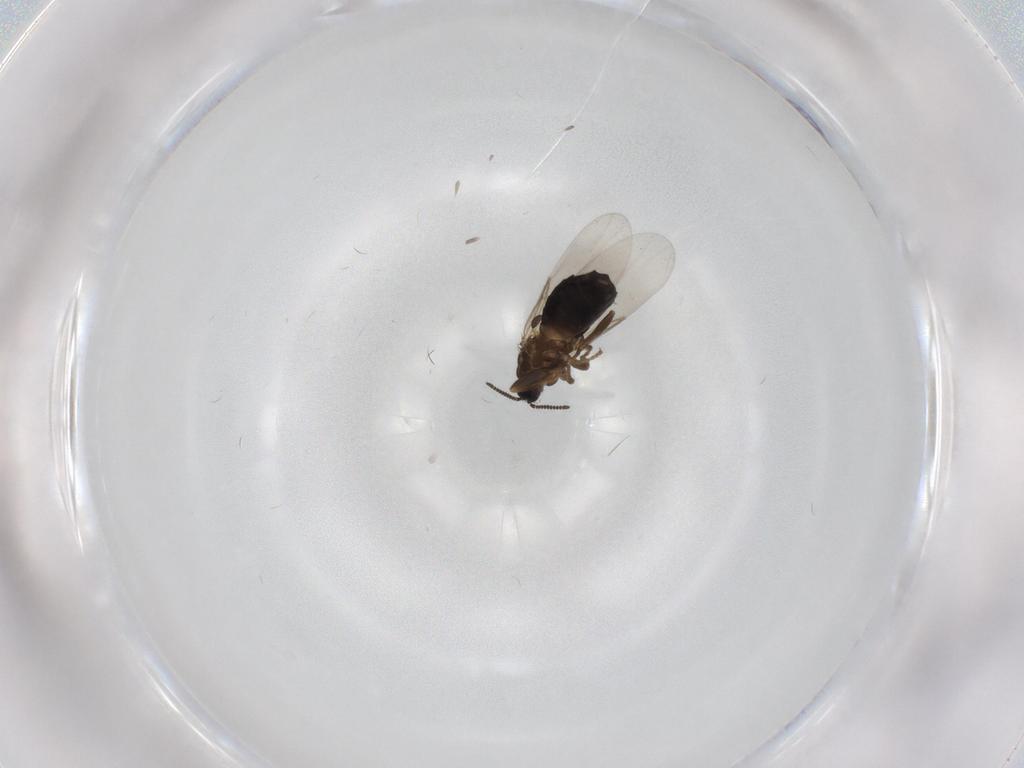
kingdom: Animalia
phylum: Arthropoda
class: Insecta
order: Diptera
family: Scatopsidae
